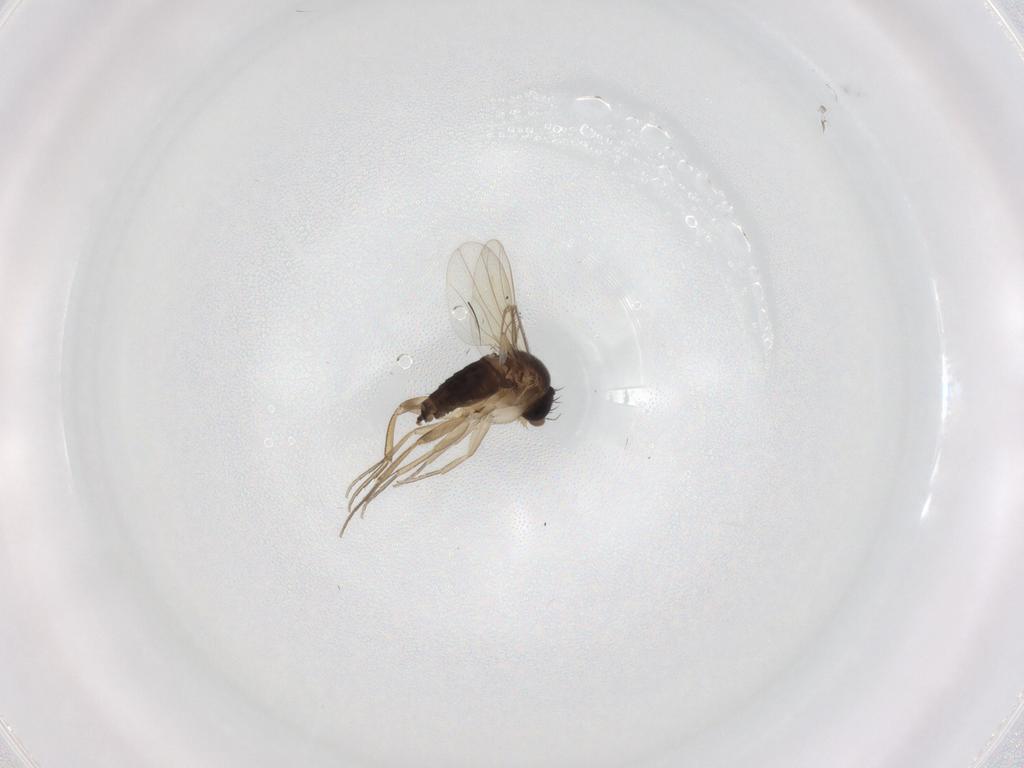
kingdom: Animalia
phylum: Arthropoda
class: Insecta
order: Diptera
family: Phoridae
